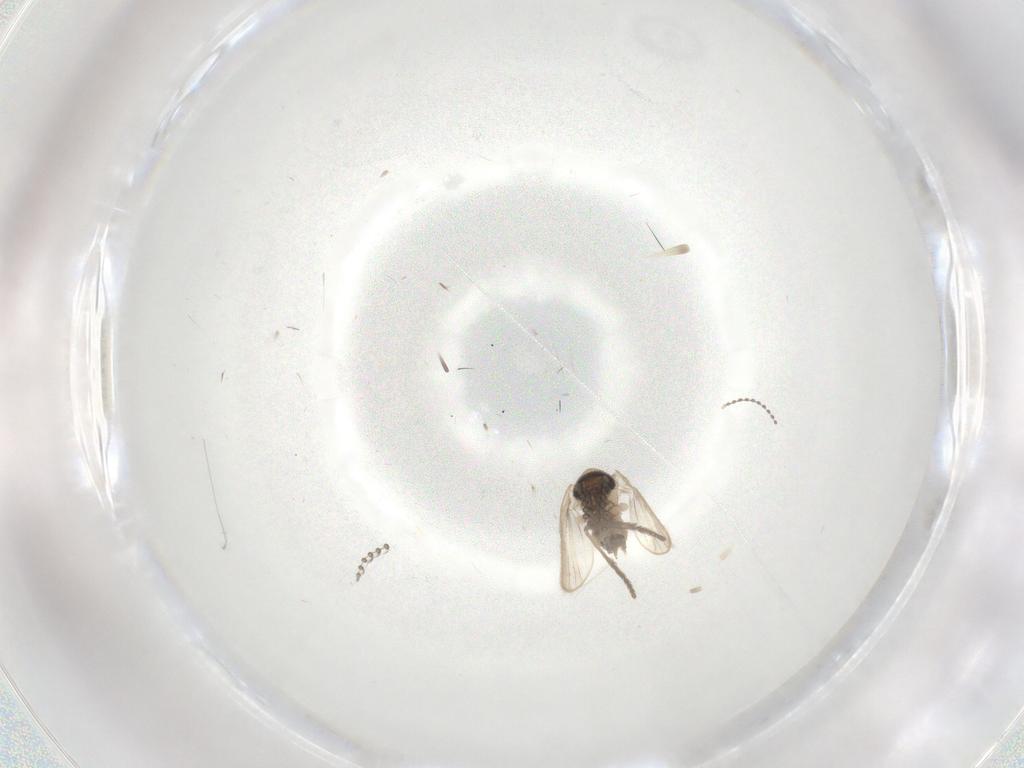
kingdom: Animalia
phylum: Arthropoda
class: Insecta
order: Diptera
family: Psychodidae
